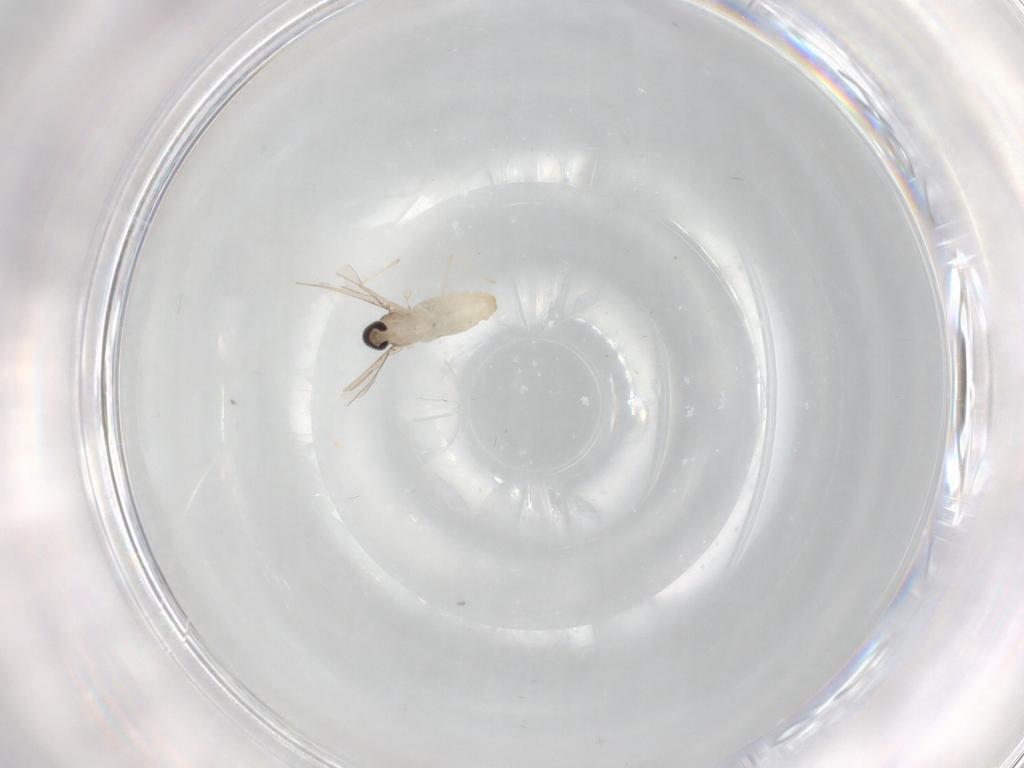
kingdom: Animalia
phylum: Arthropoda
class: Insecta
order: Diptera
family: Cecidomyiidae
